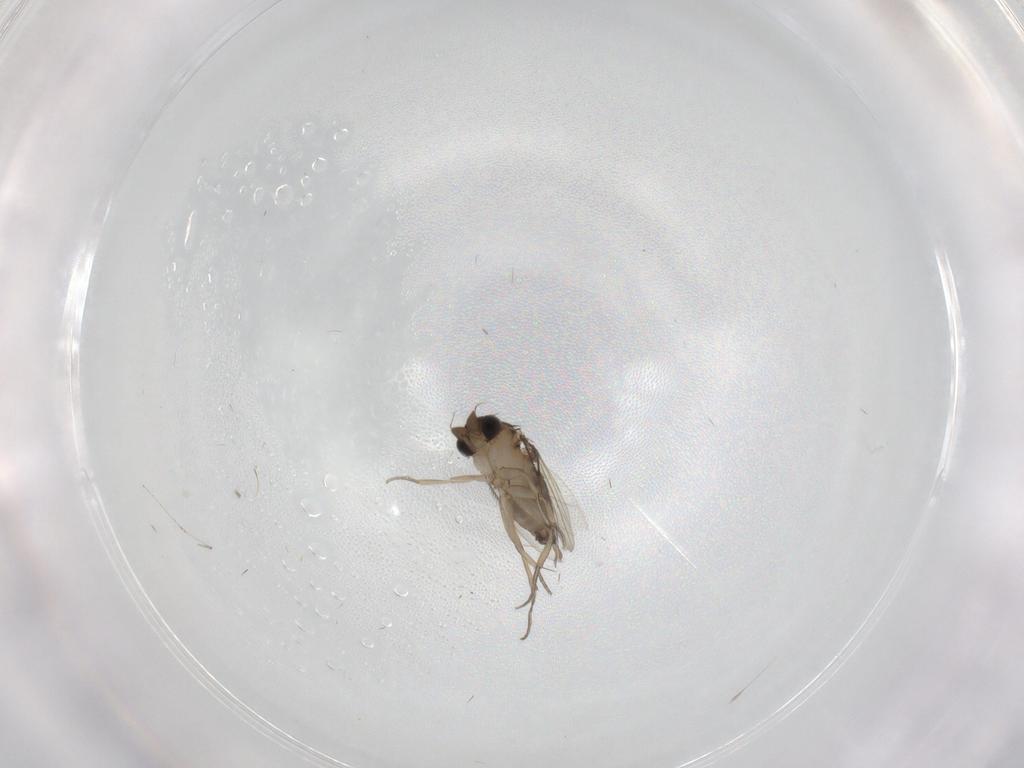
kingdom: Animalia
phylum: Arthropoda
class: Insecta
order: Diptera
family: Cecidomyiidae
